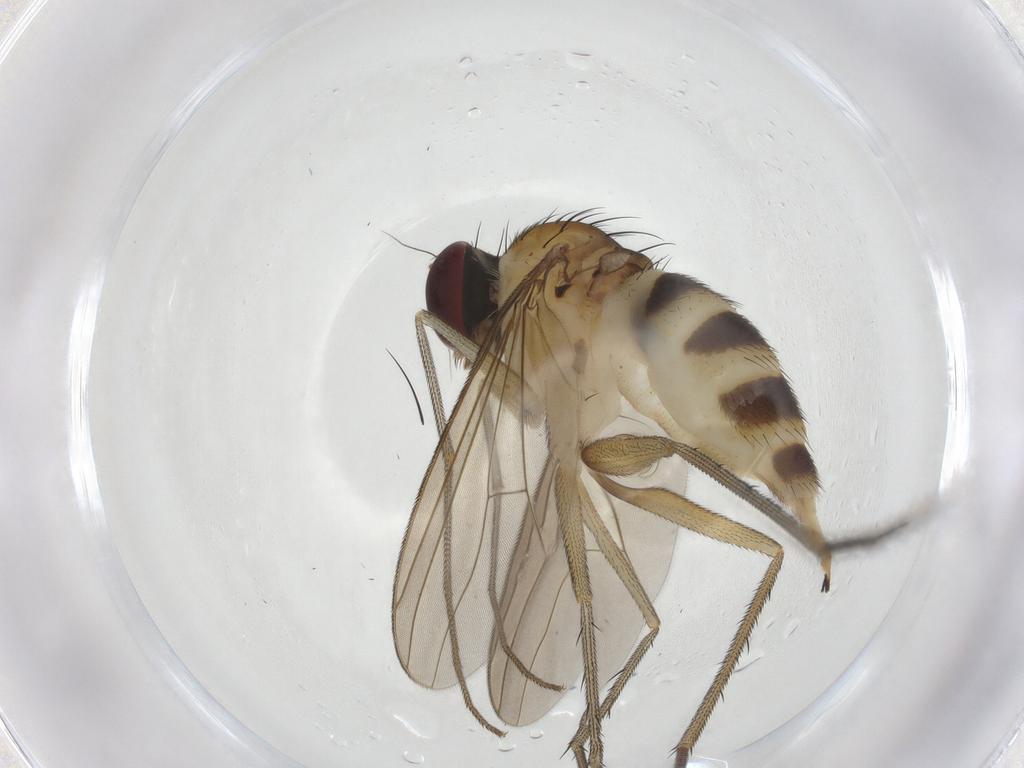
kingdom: Animalia
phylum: Arthropoda
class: Insecta
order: Diptera
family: Dolichopodidae
